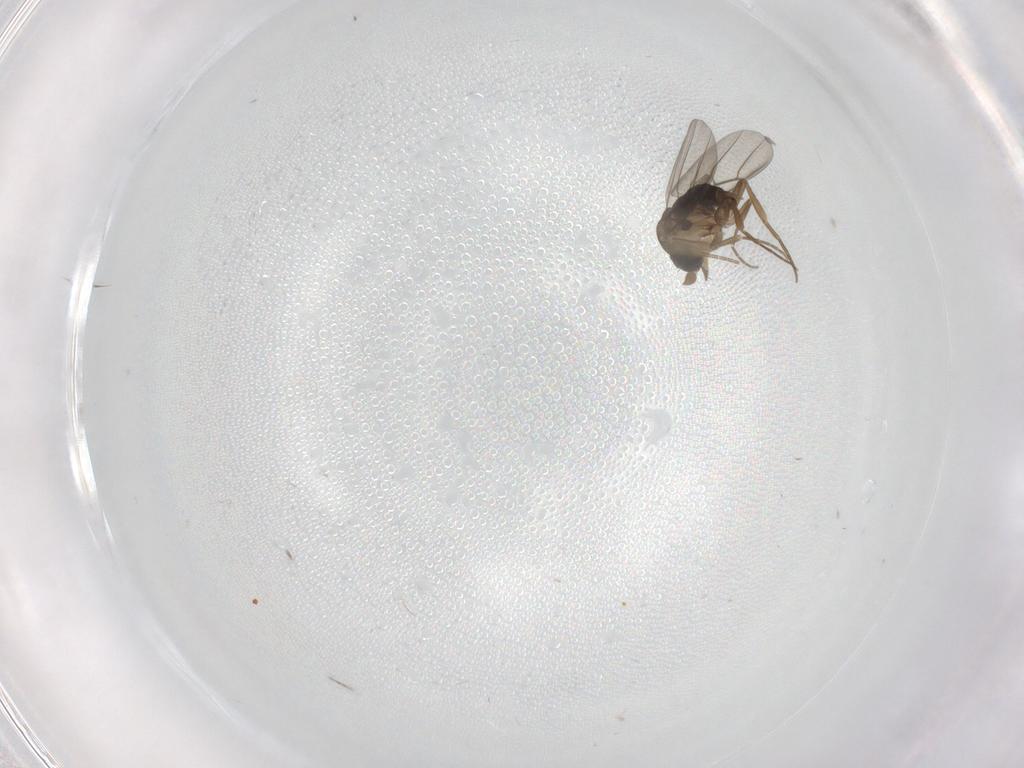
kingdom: Animalia
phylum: Arthropoda
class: Insecta
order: Diptera
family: Phoridae
